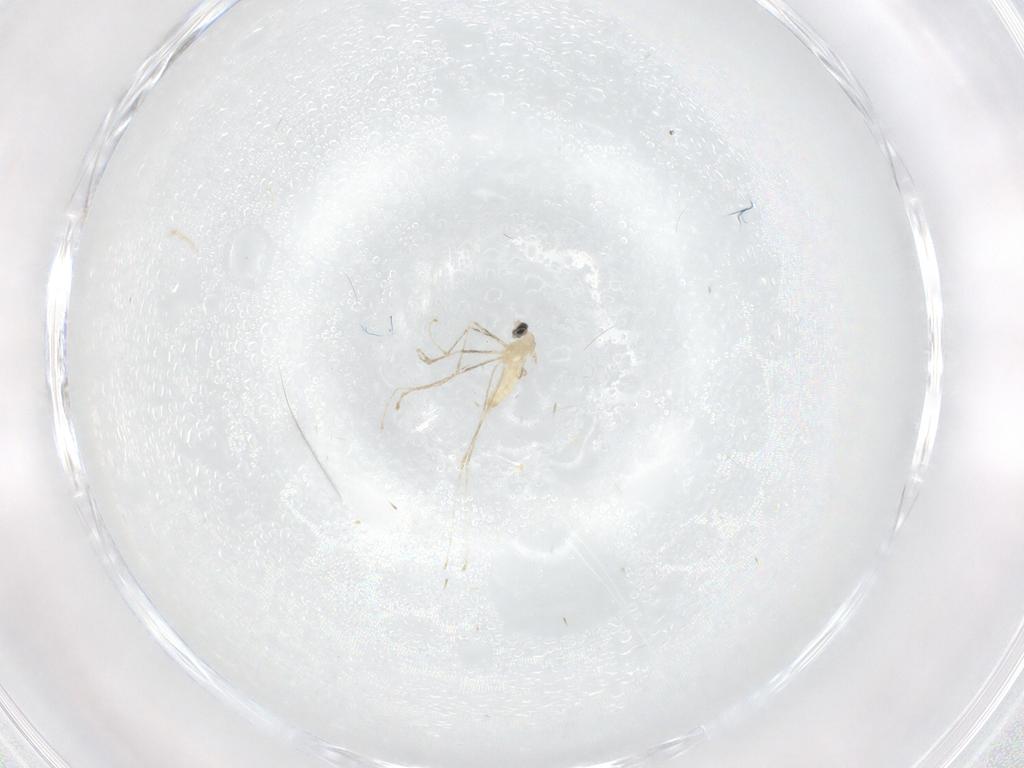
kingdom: Animalia
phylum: Arthropoda
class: Insecta
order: Diptera
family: Cecidomyiidae
